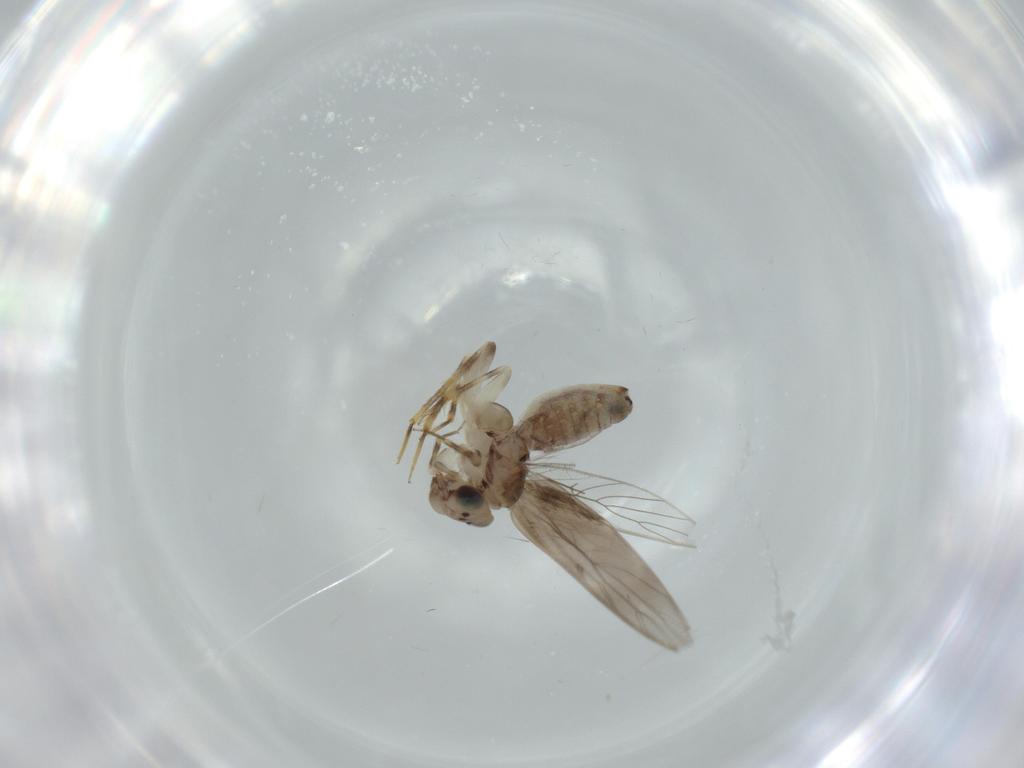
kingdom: Animalia
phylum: Arthropoda
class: Insecta
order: Psocodea
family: Lepidopsocidae
